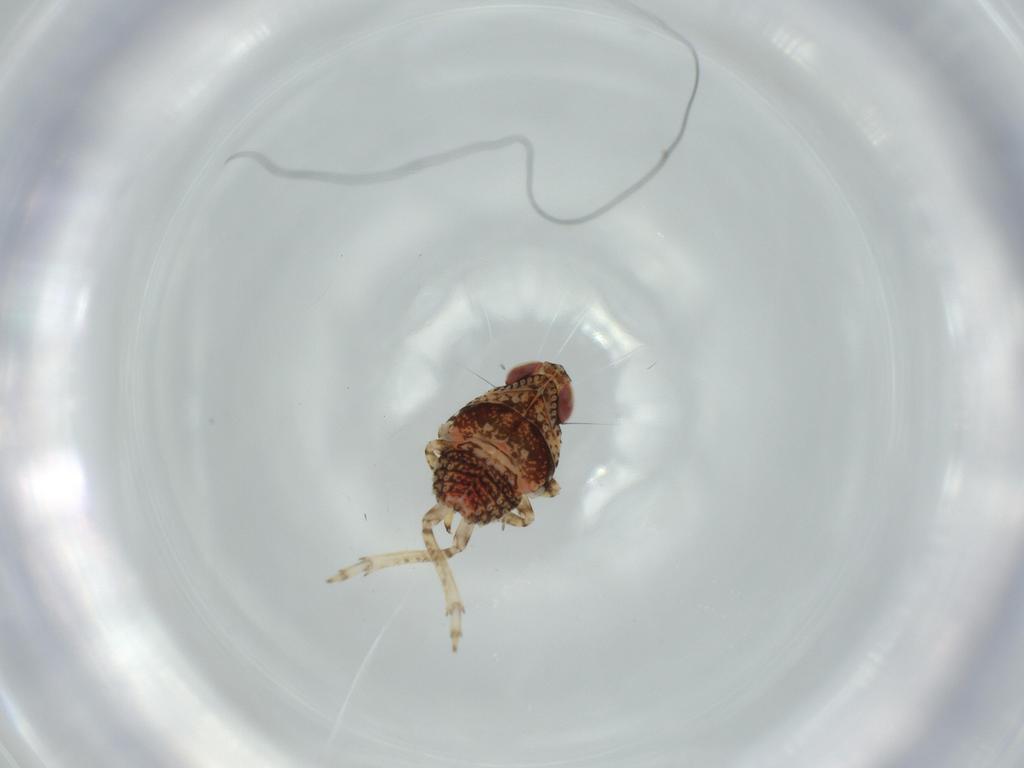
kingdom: Animalia
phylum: Arthropoda
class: Insecta
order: Hemiptera
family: Issidae
